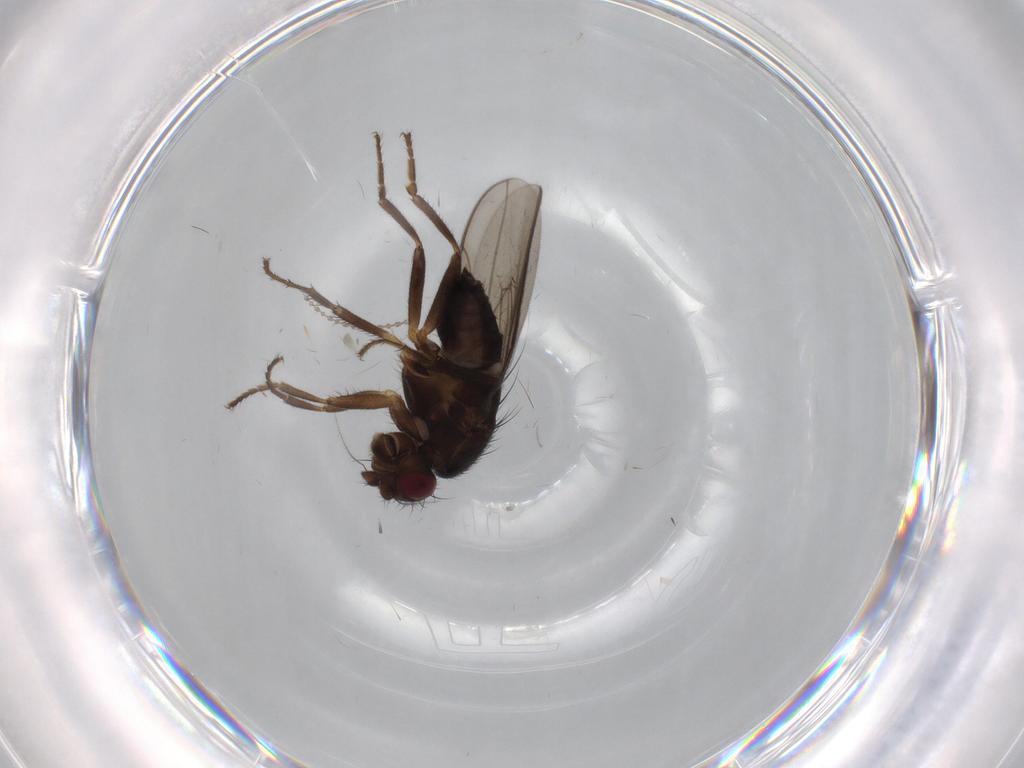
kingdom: Animalia
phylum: Arthropoda
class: Insecta
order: Diptera
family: Sphaeroceridae
